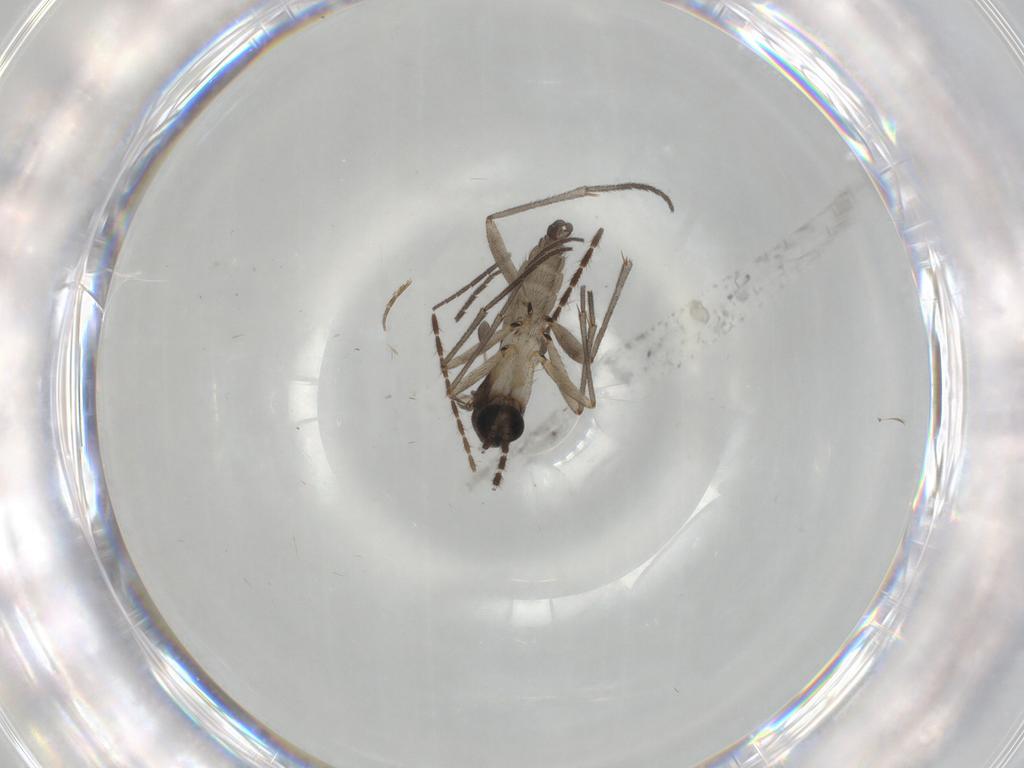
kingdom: Animalia
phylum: Arthropoda
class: Insecta
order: Diptera
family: Sciaridae
